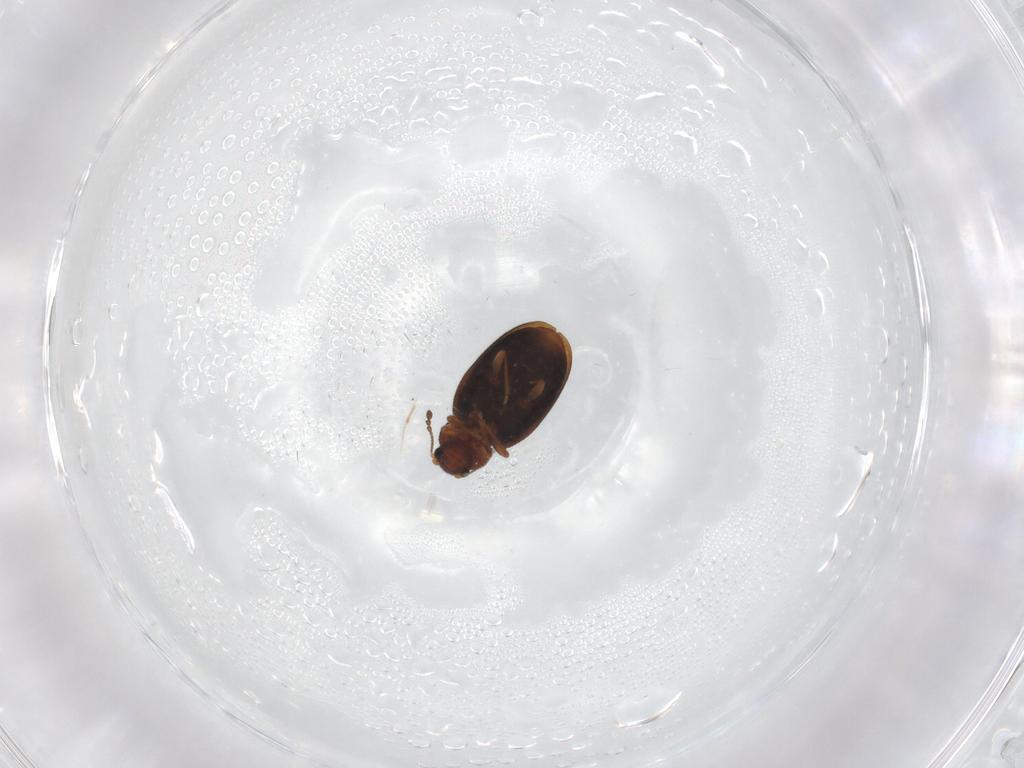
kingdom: Animalia
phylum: Arthropoda
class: Insecta
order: Coleoptera
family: Latridiidae
